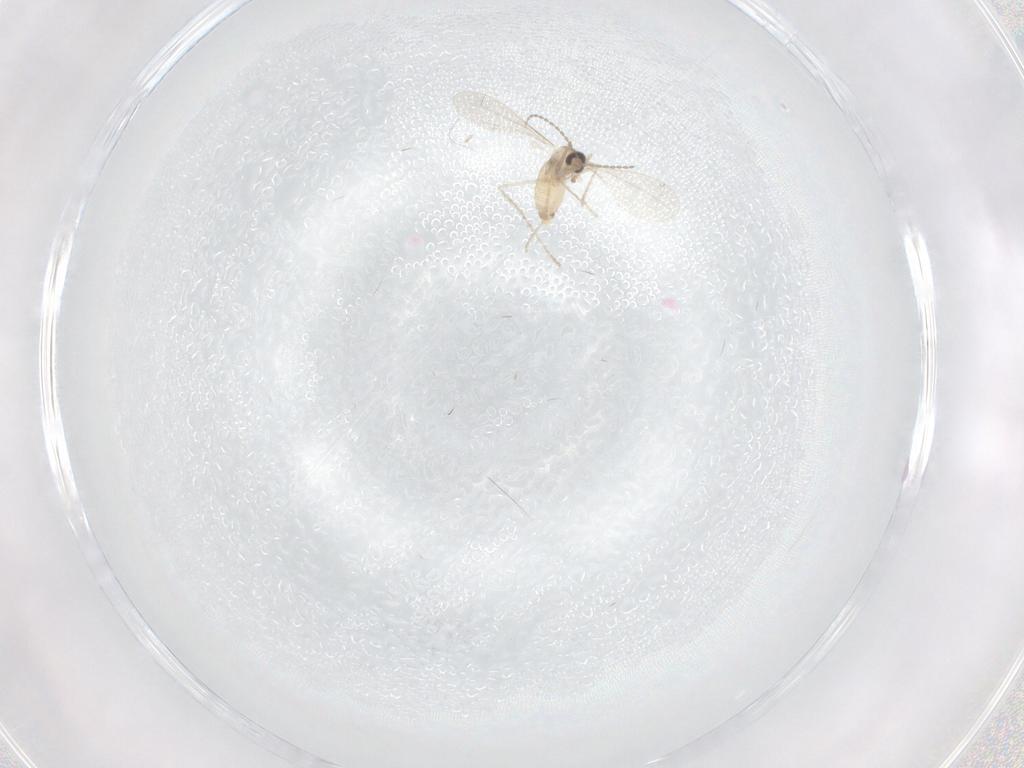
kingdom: Animalia
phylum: Arthropoda
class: Insecta
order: Diptera
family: Cecidomyiidae
